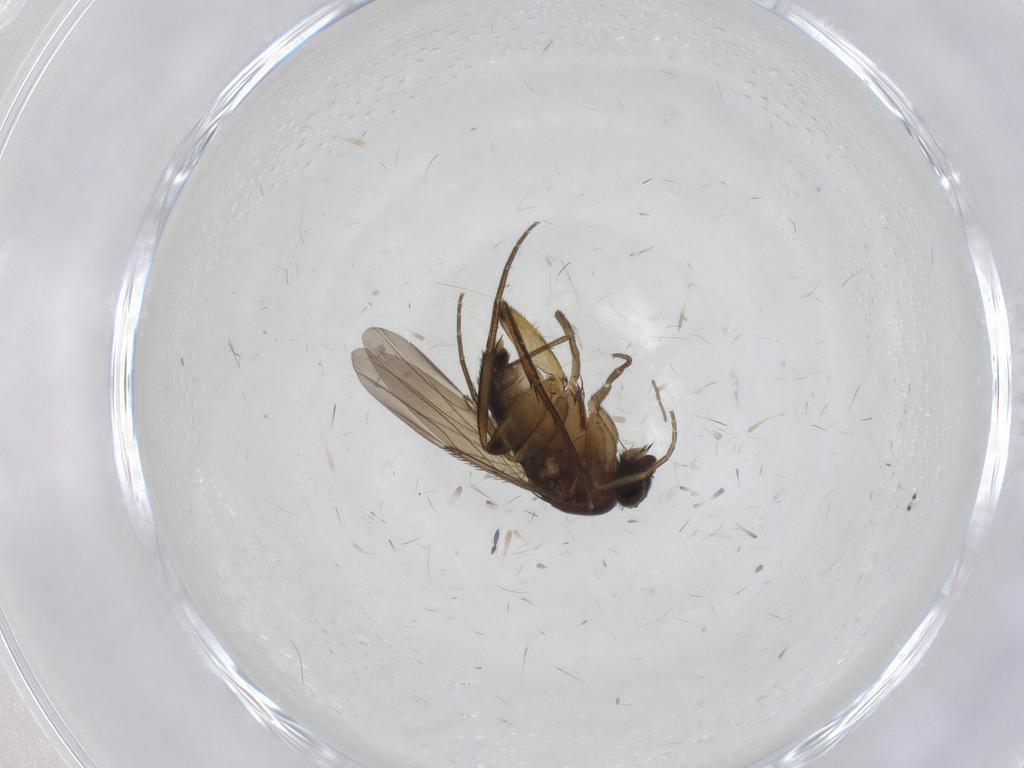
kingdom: Animalia
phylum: Arthropoda
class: Insecta
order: Diptera
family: Phoridae
